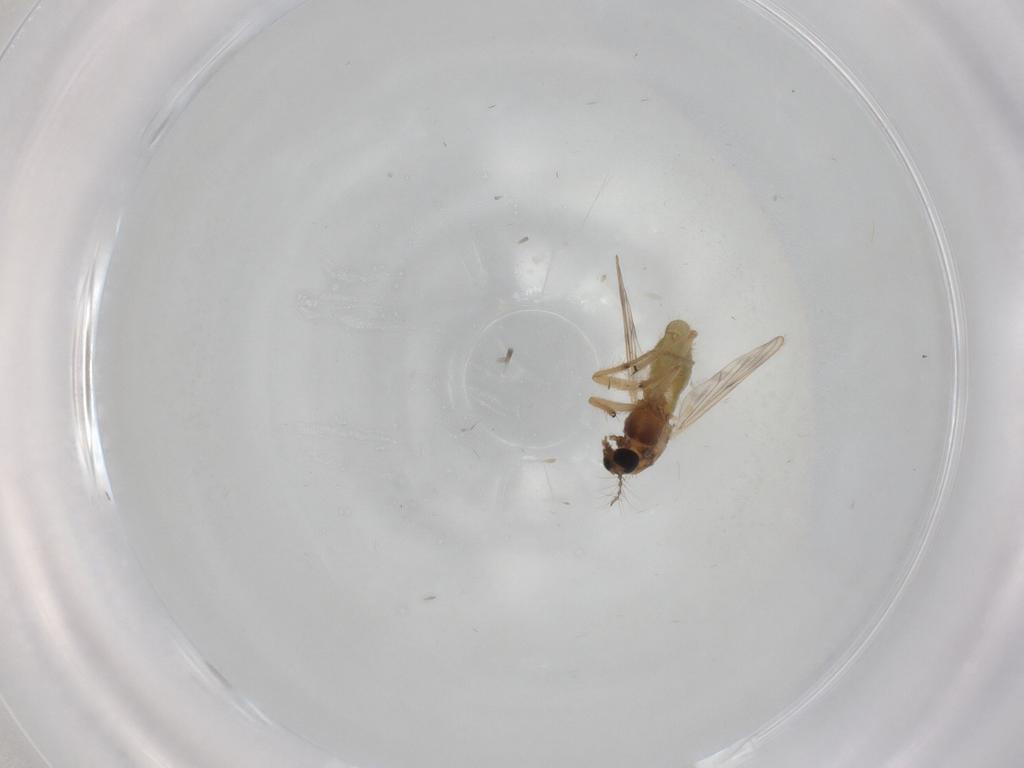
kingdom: Animalia
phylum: Arthropoda
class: Insecta
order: Diptera
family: Chironomidae
